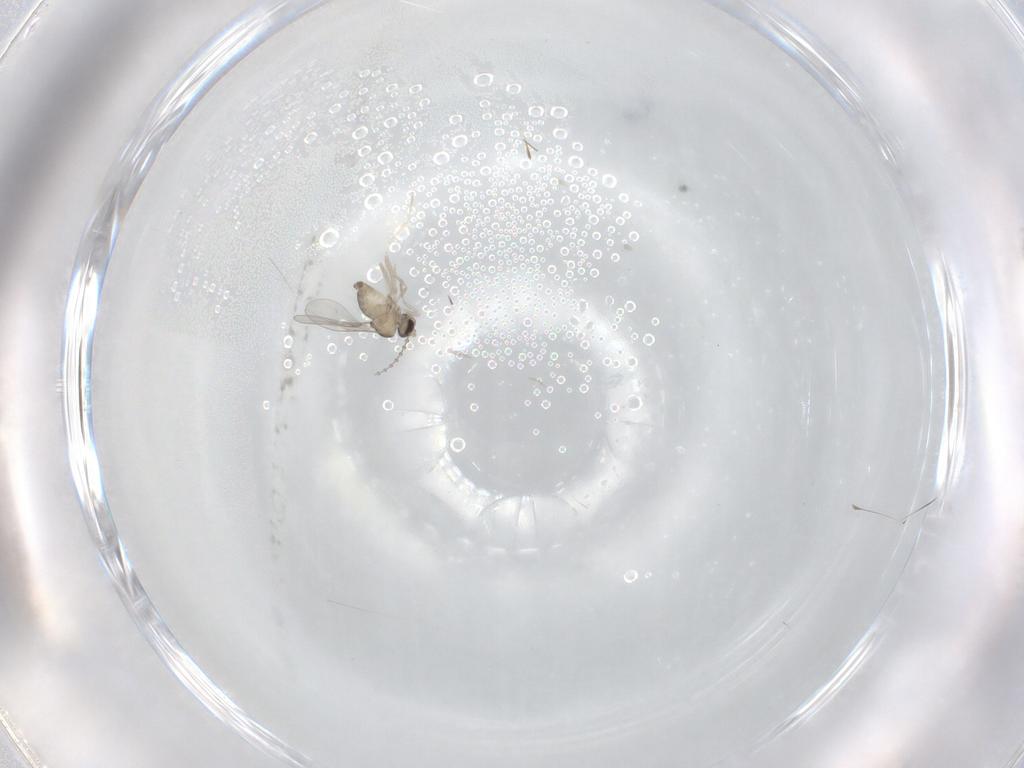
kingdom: Animalia
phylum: Arthropoda
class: Insecta
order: Diptera
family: Cecidomyiidae
